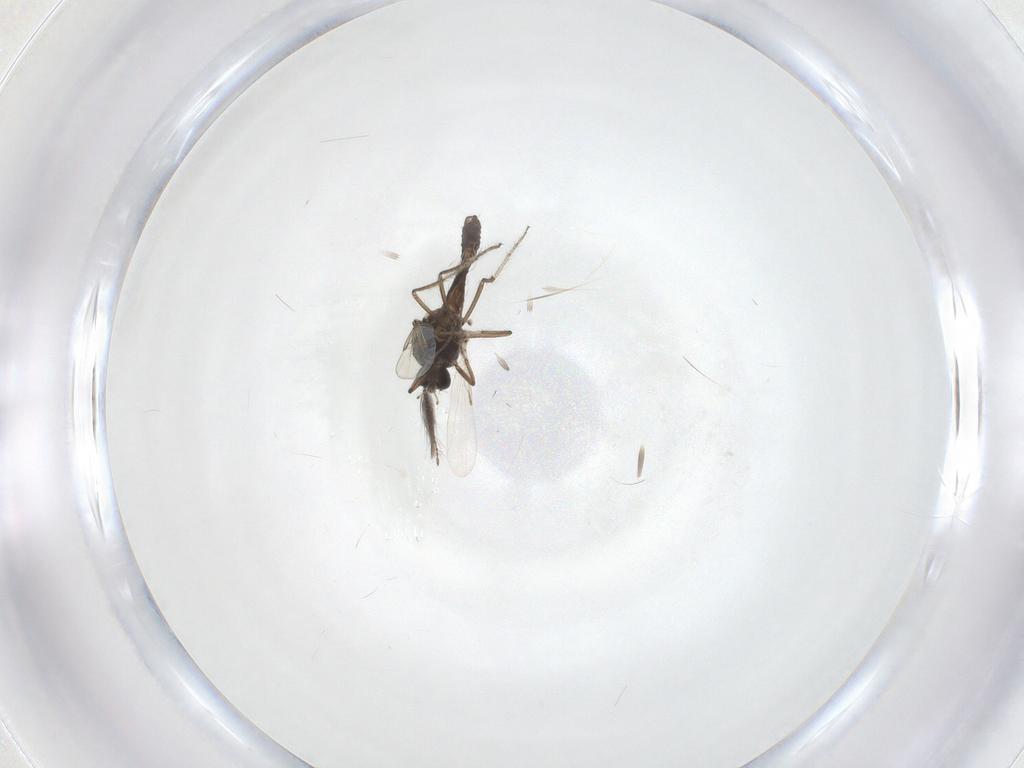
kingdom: Animalia
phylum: Arthropoda
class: Insecta
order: Diptera
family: Ceratopogonidae
